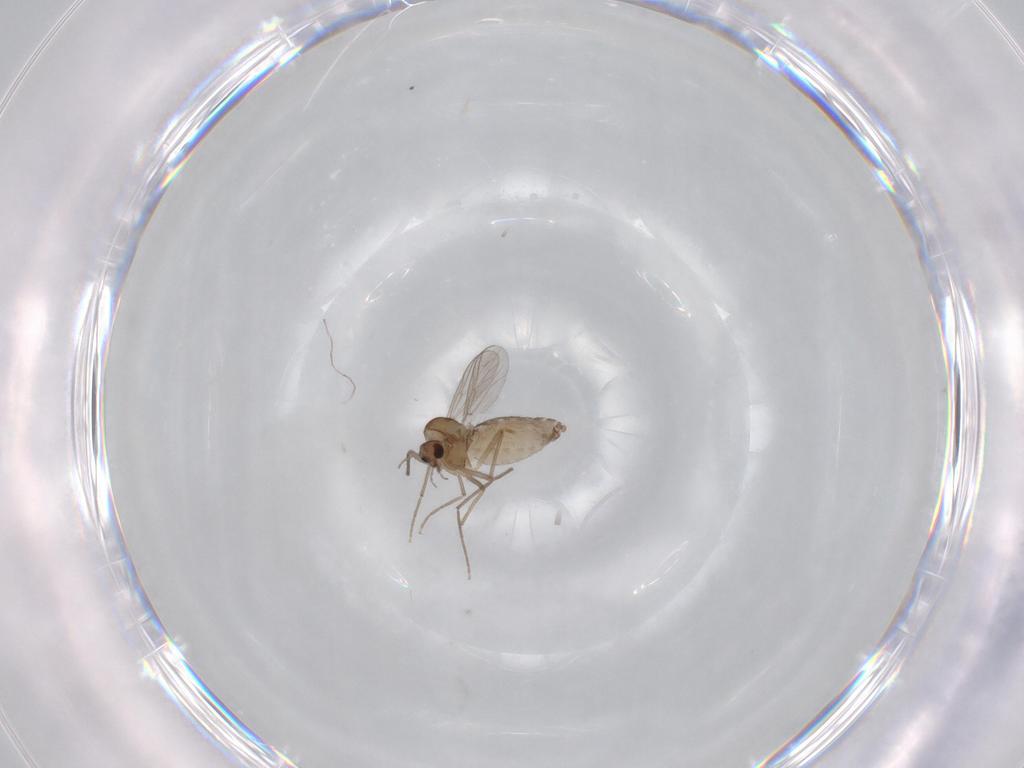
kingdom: Animalia
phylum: Arthropoda
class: Insecta
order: Diptera
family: Chironomidae
